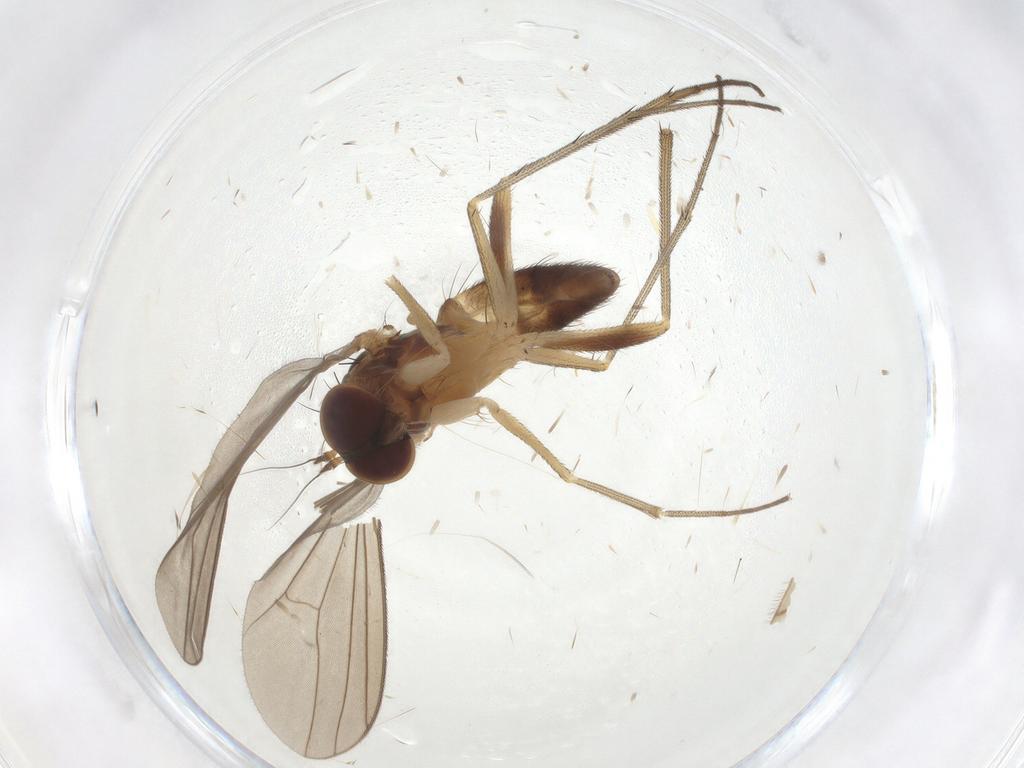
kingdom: Animalia
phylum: Arthropoda
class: Insecta
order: Diptera
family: Dolichopodidae
